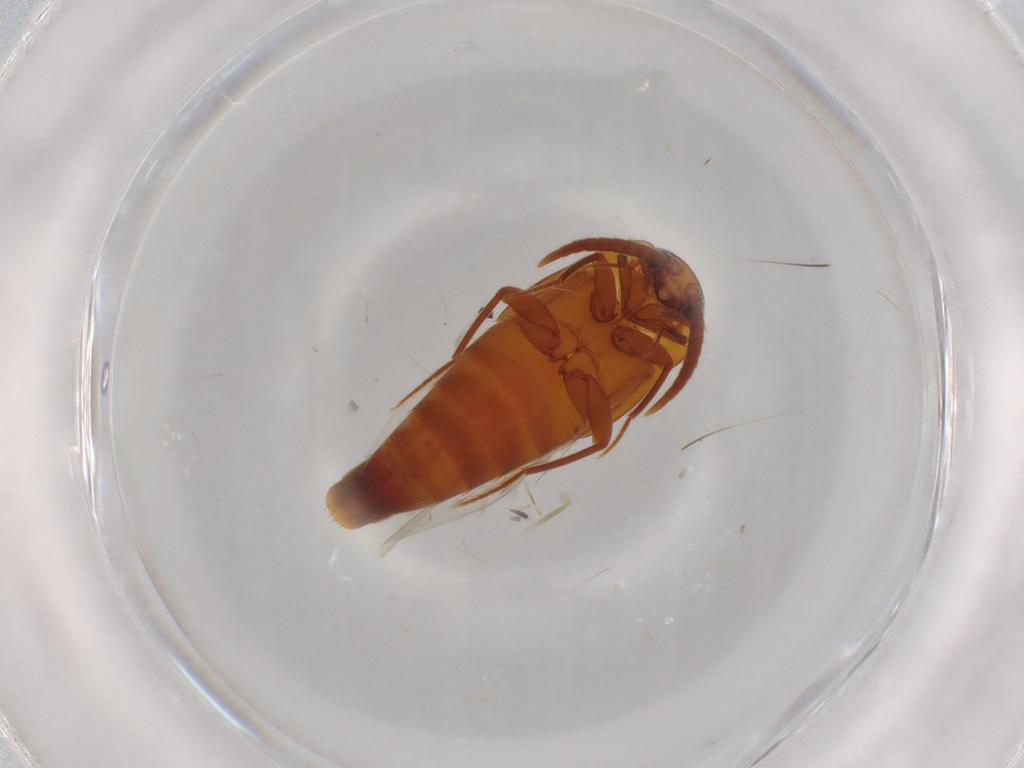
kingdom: Animalia
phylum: Arthropoda
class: Insecta
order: Coleoptera
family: Staphylinidae
